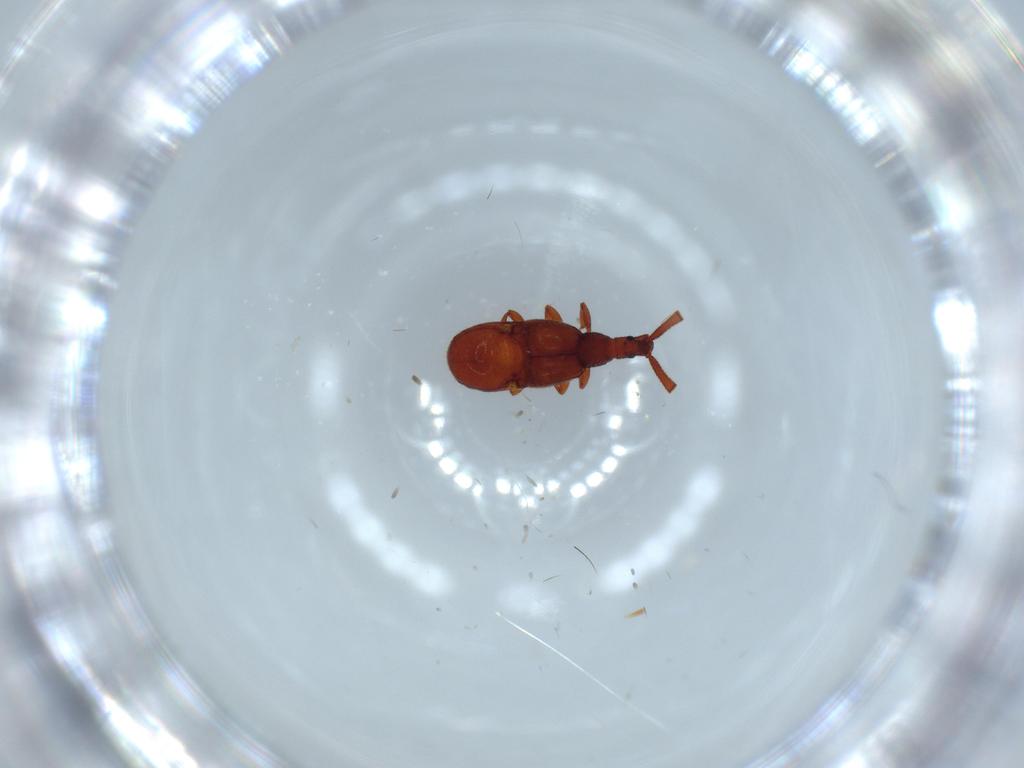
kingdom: Animalia
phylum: Arthropoda
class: Insecta
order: Coleoptera
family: Staphylinidae
